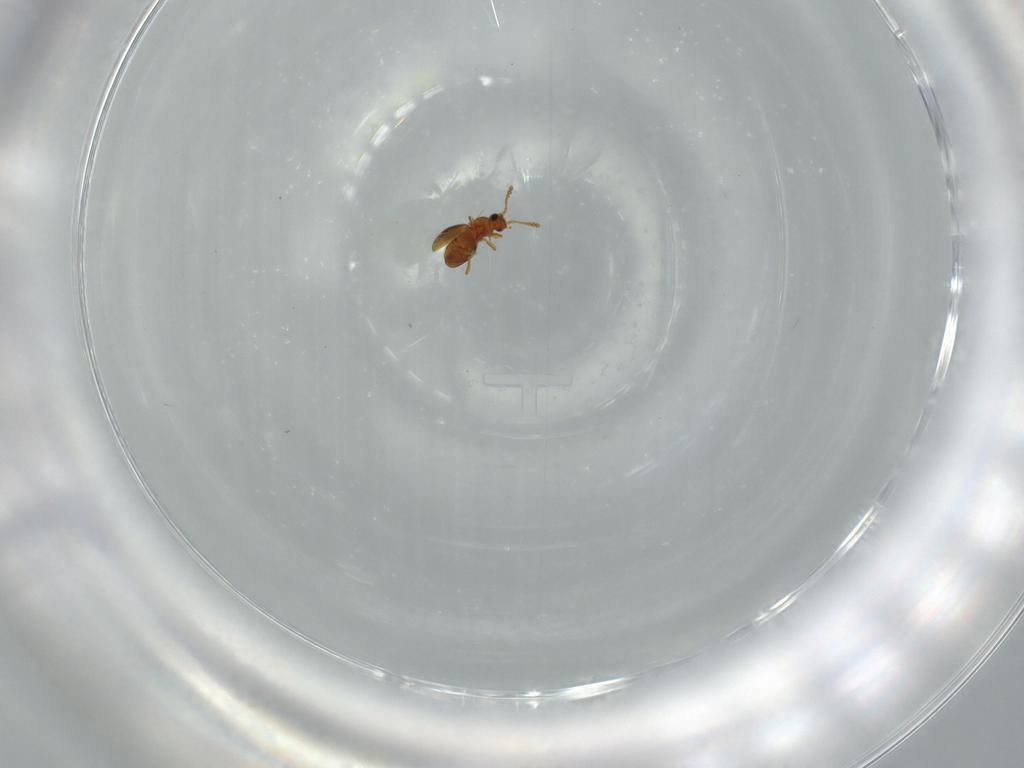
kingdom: Animalia
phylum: Arthropoda
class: Insecta
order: Coleoptera
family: Staphylinidae
